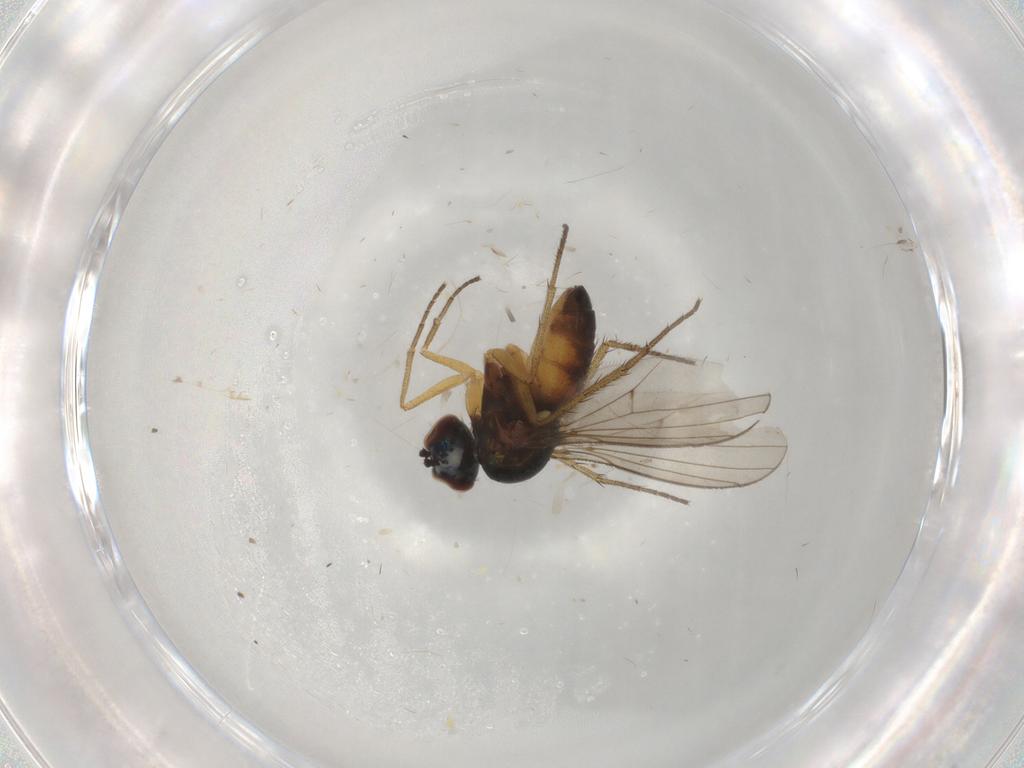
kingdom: Animalia
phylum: Arthropoda
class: Insecta
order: Diptera
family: Dolichopodidae
